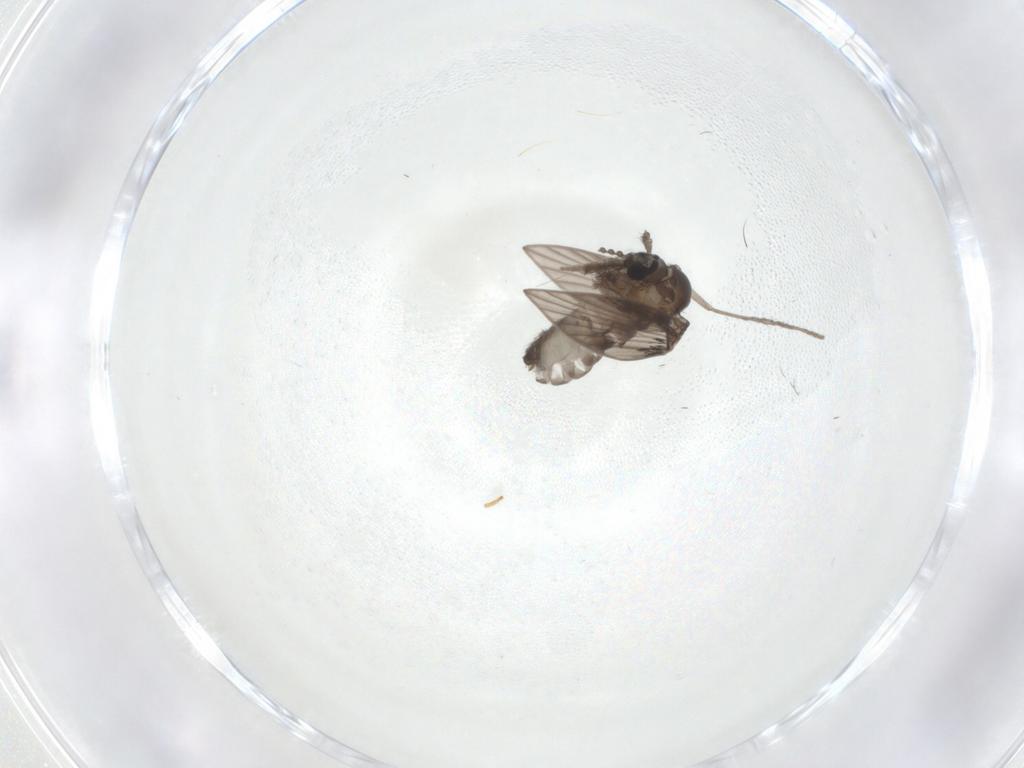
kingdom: Animalia
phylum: Arthropoda
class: Insecta
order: Diptera
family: Psychodidae
